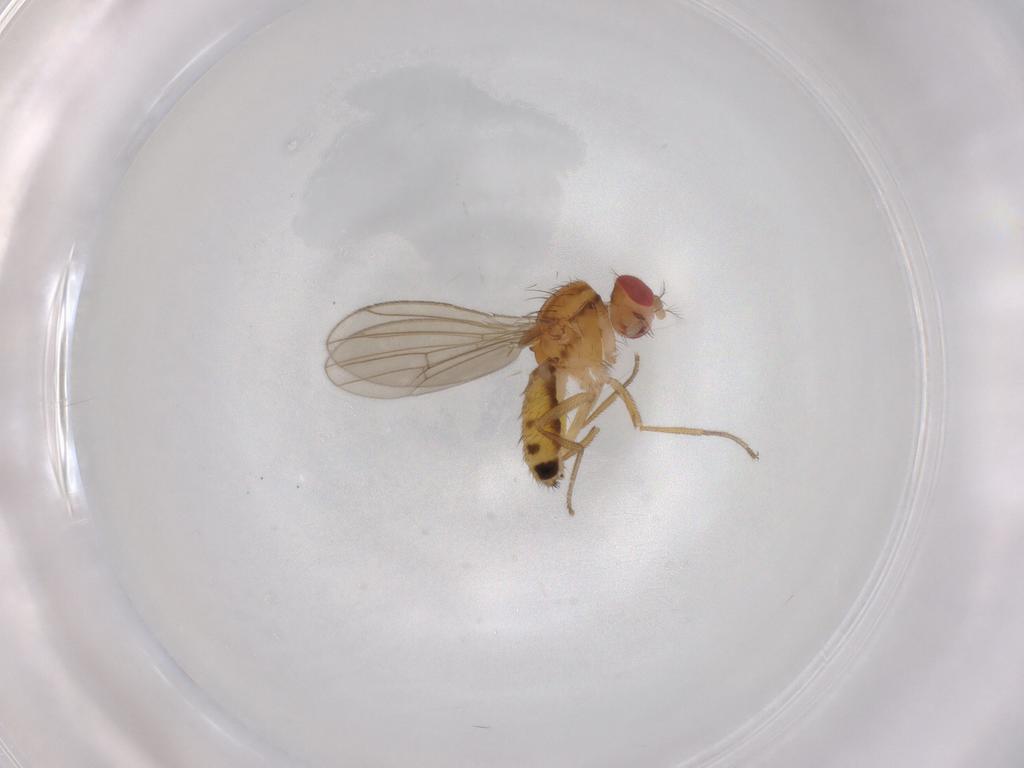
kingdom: Animalia
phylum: Arthropoda
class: Insecta
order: Diptera
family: Drosophilidae
